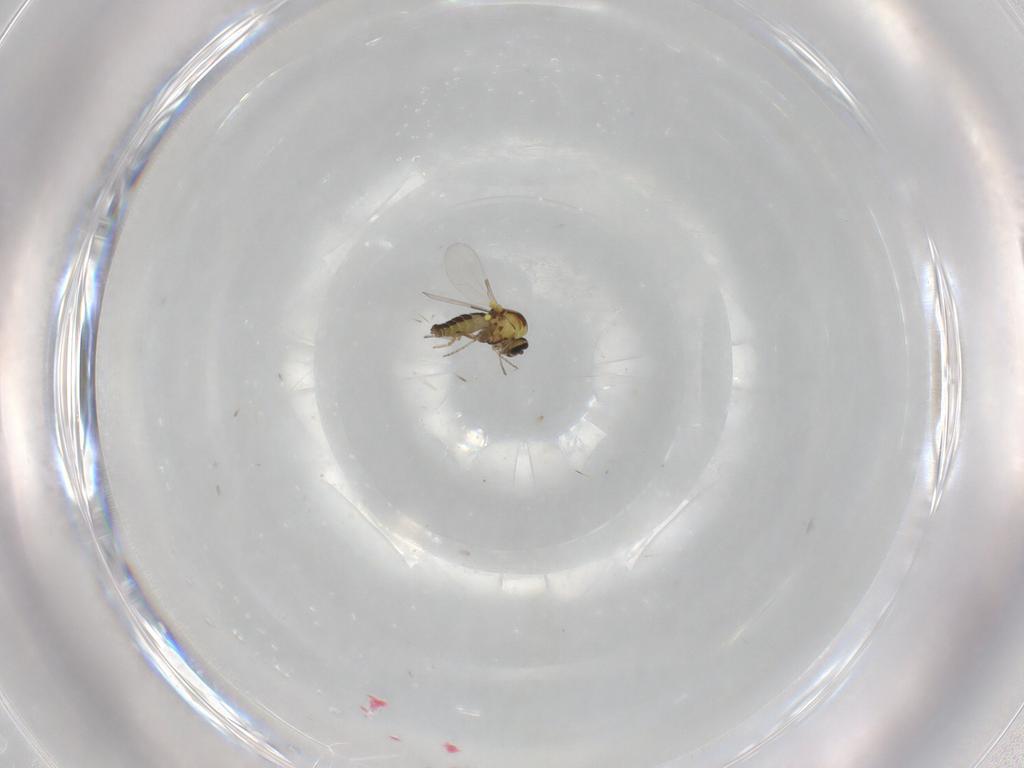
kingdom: Animalia
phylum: Arthropoda
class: Insecta
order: Diptera
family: Ceratopogonidae
